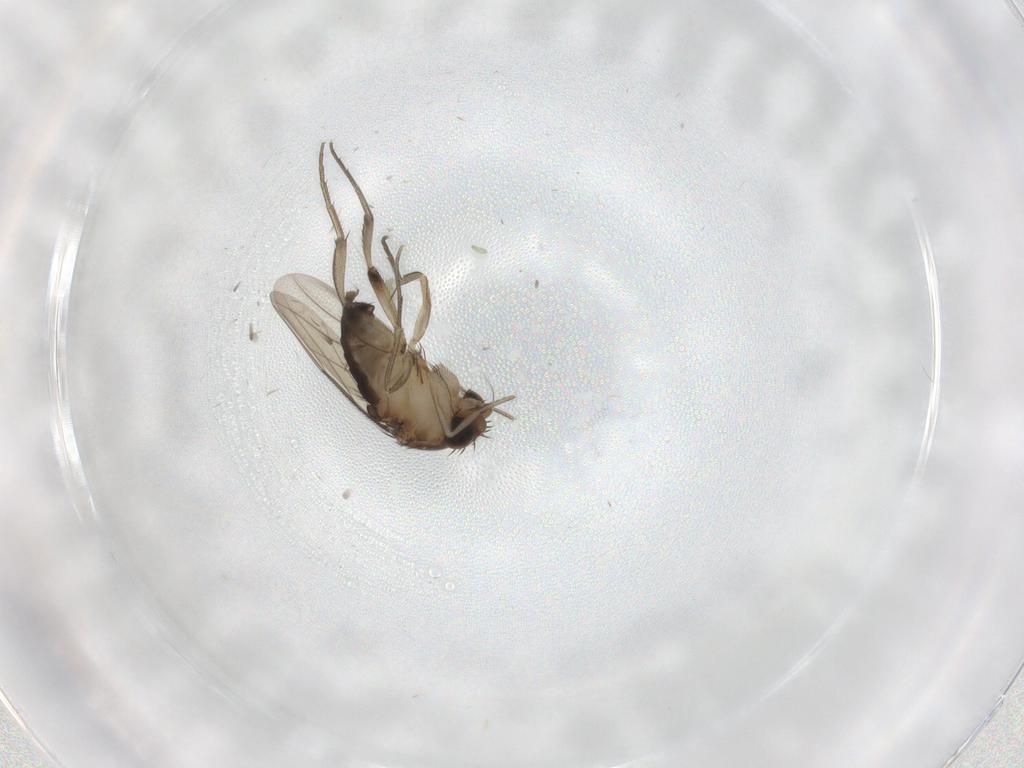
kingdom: Animalia
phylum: Arthropoda
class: Insecta
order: Diptera
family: Phoridae
